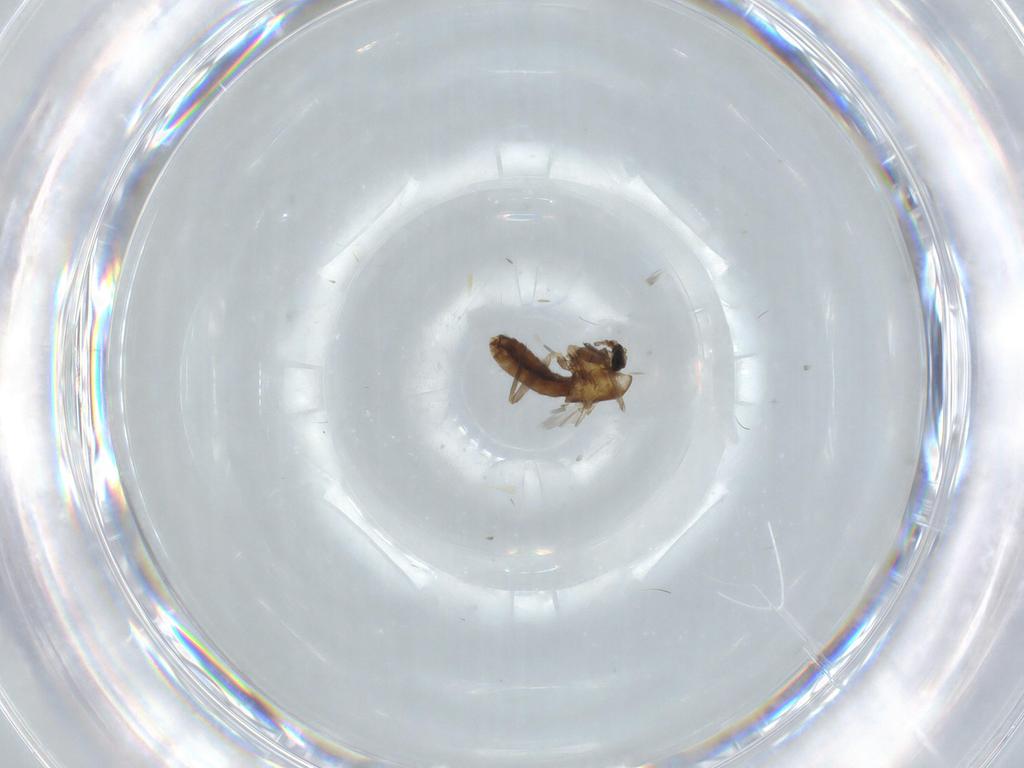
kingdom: Animalia
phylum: Arthropoda
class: Insecta
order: Diptera
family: Chironomidae
